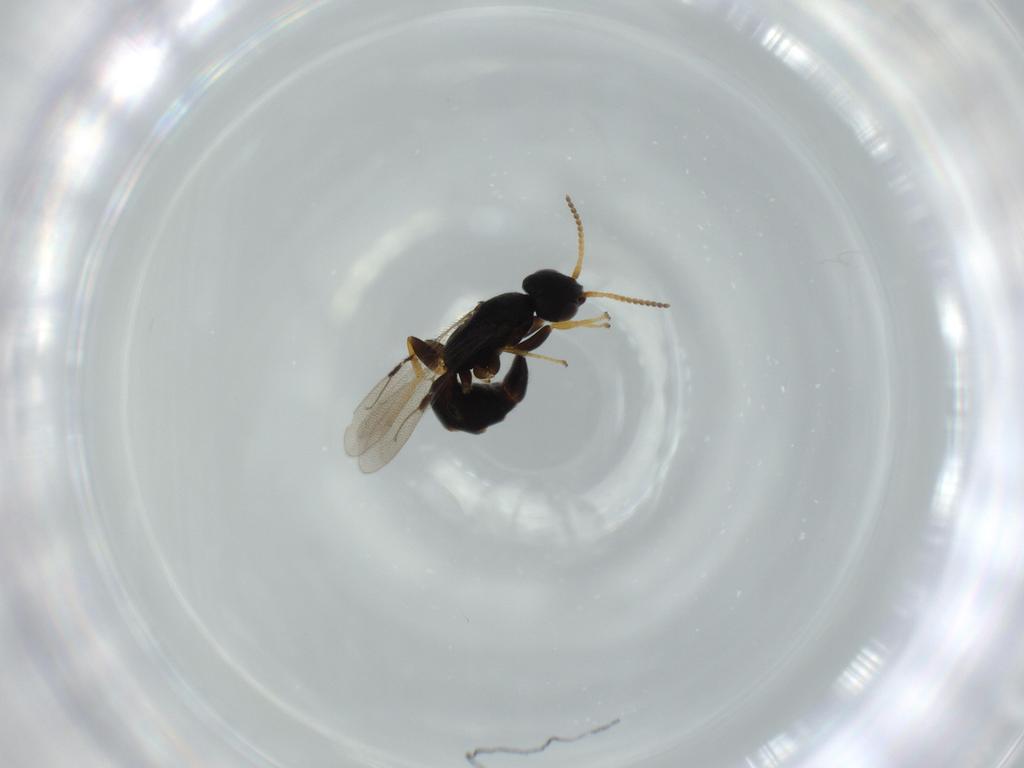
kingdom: Animalia
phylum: Arthropoda
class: Insecta
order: Hymenoptera
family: Bethylidae
